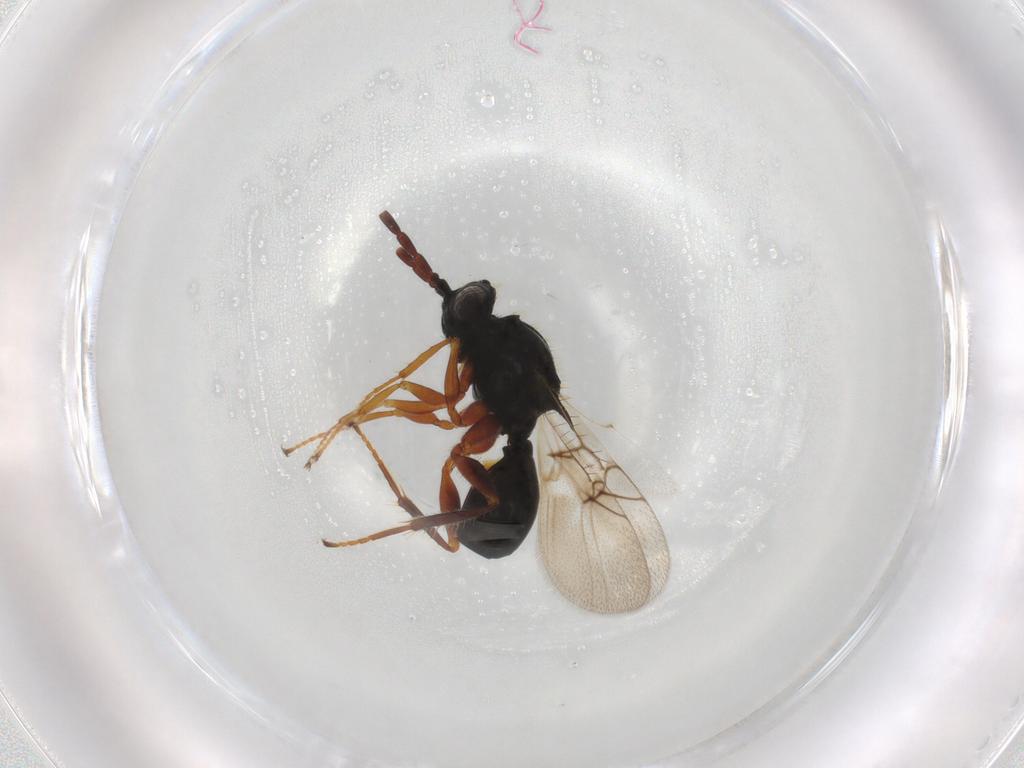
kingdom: Animalia
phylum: Arthropoda
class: Insecta
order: Hymenoptera
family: Figitidae
